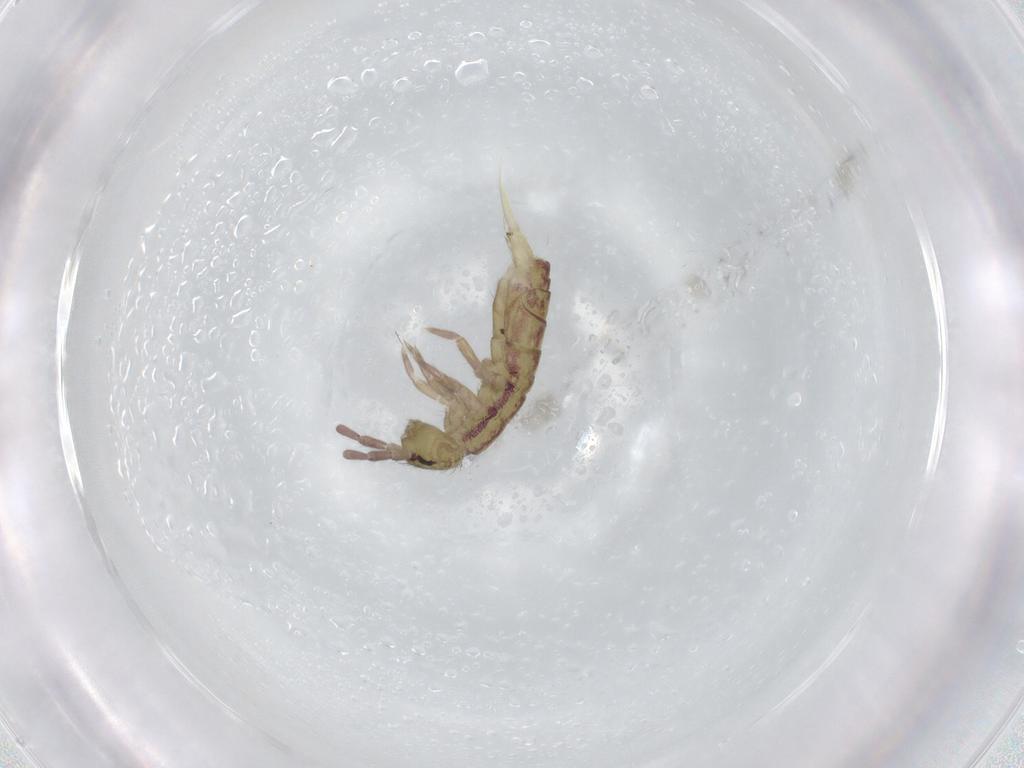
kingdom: Animalia
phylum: Arthropoda
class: Collembola
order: Entomobryomorpha
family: Isotomidae
